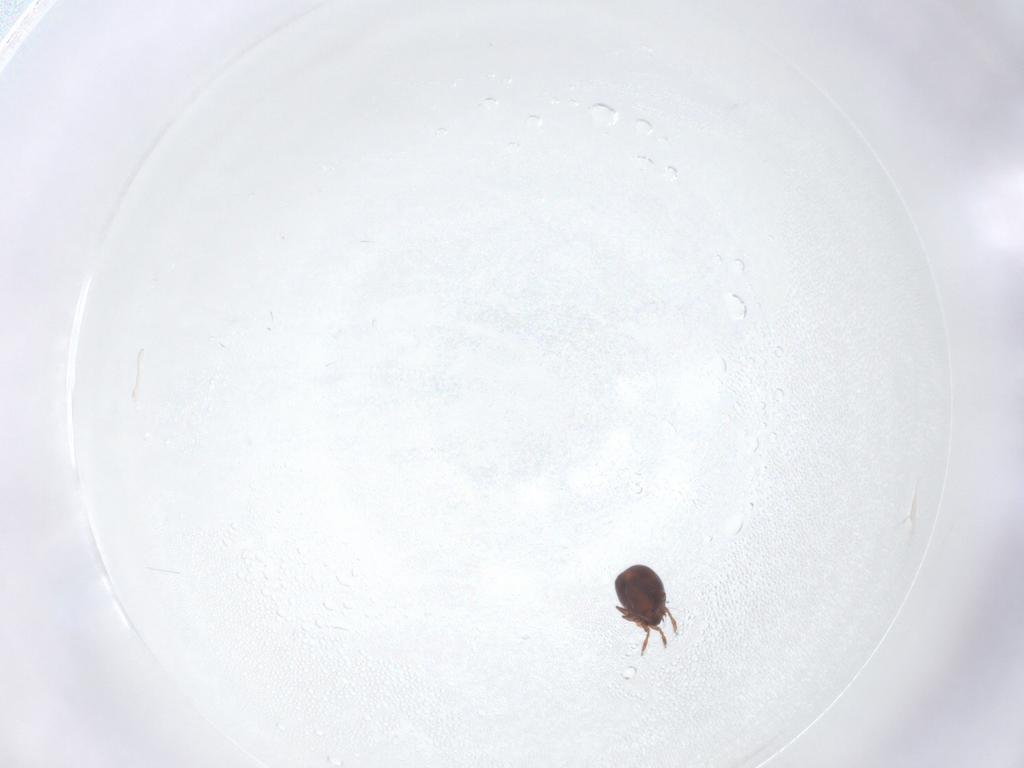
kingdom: Animalia
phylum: Arthropoda
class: Arachnida
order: Sarcoptiformes
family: Ceratozetidae
